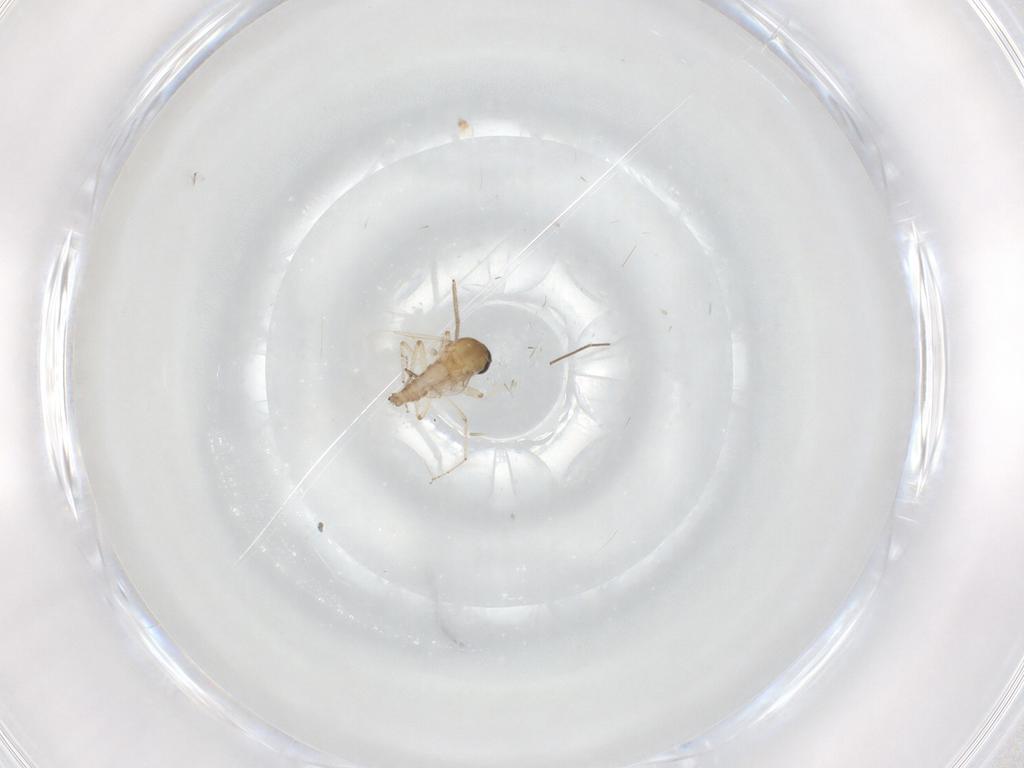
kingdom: Animalia
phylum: Arthropoda
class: Insecta
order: Diptera
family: Ceratopogonidae
